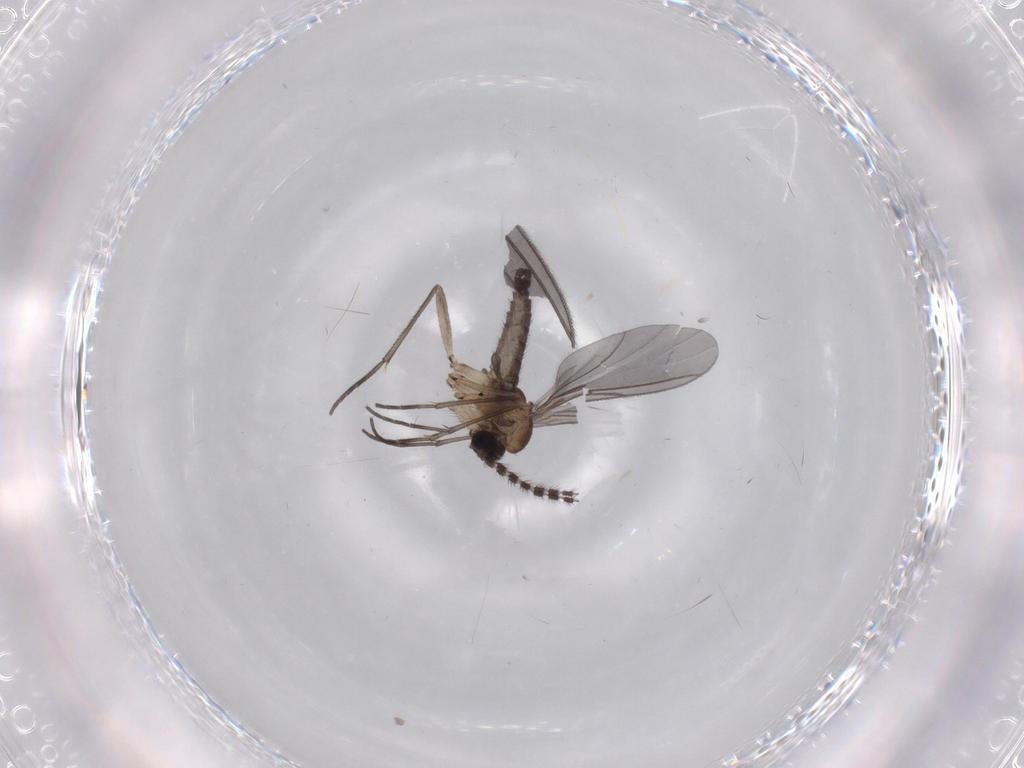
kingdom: Animalia
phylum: Arthropoda
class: Insecta
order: Diptera
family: Sciaridae
